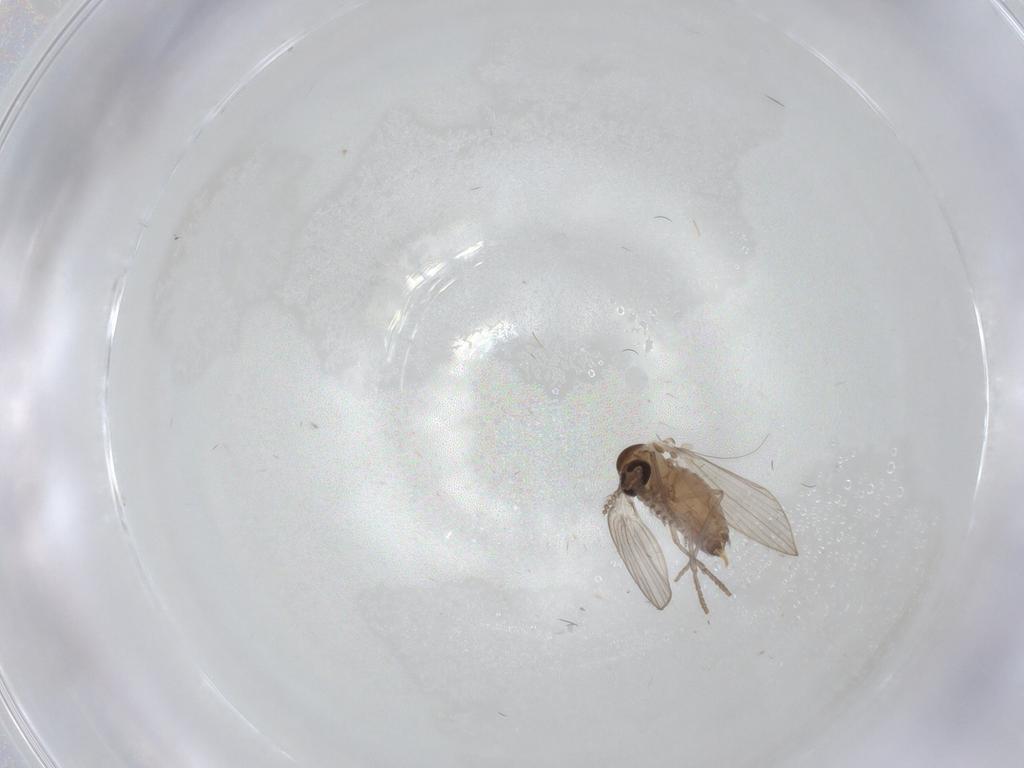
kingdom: Animalia
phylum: Arthropoda
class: Insecta
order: Diptera
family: Psychodidae
